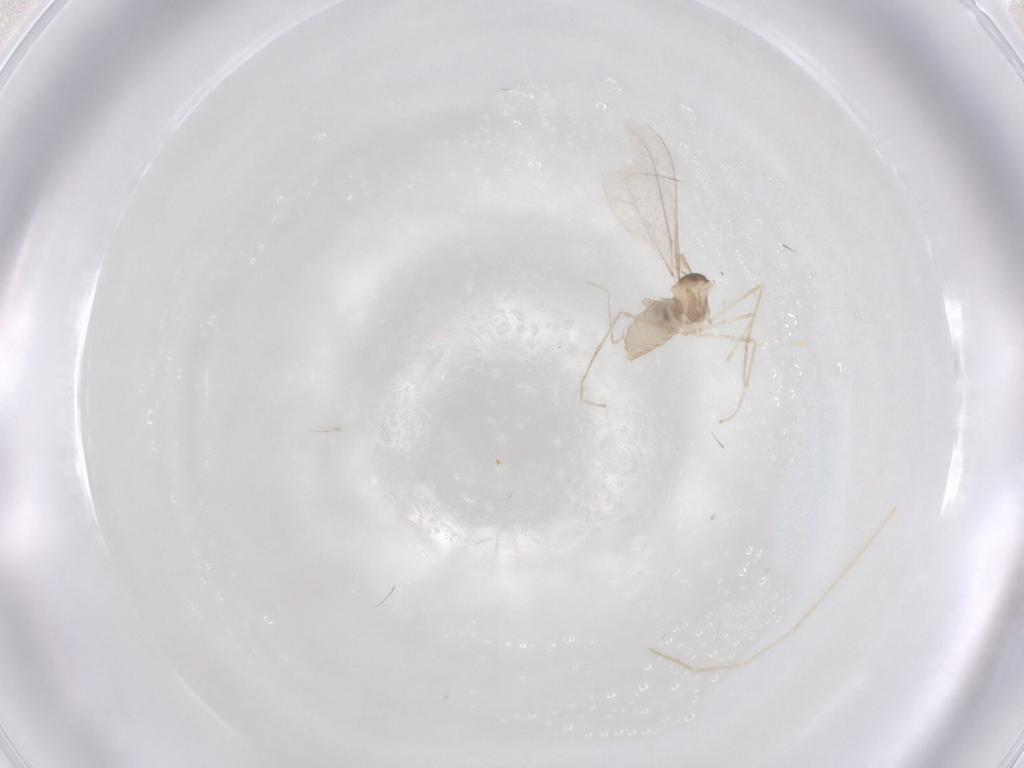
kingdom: Animalia
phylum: Arthropoda
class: Insecta
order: Diptera
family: Cecidomyiidae
